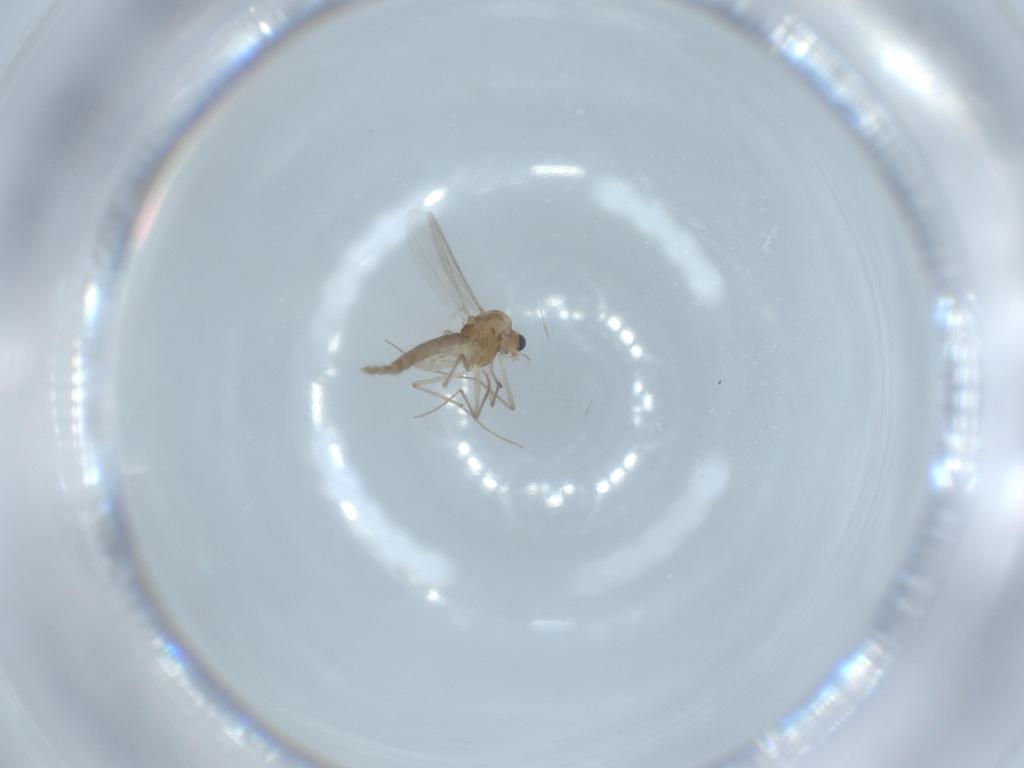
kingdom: Animalia
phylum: Arthropoda
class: Insecta
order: Diptera
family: Chironomidae
